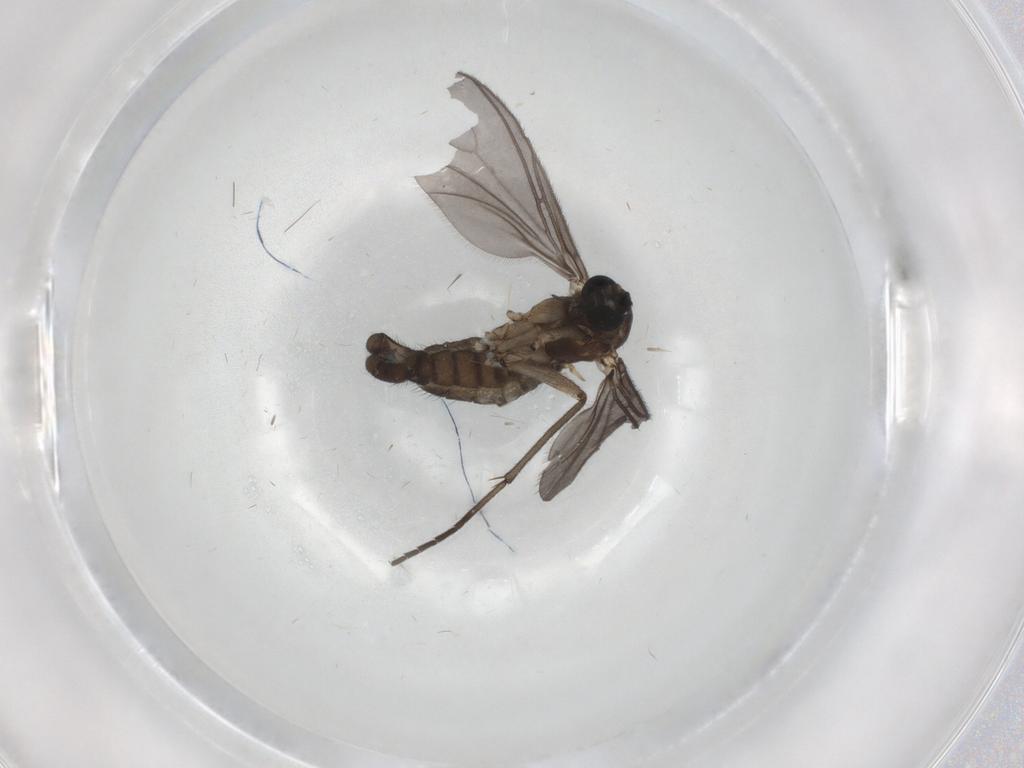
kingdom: Animalia
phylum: Arthropoda
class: Insecta
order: Diptera
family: Sciaridae
